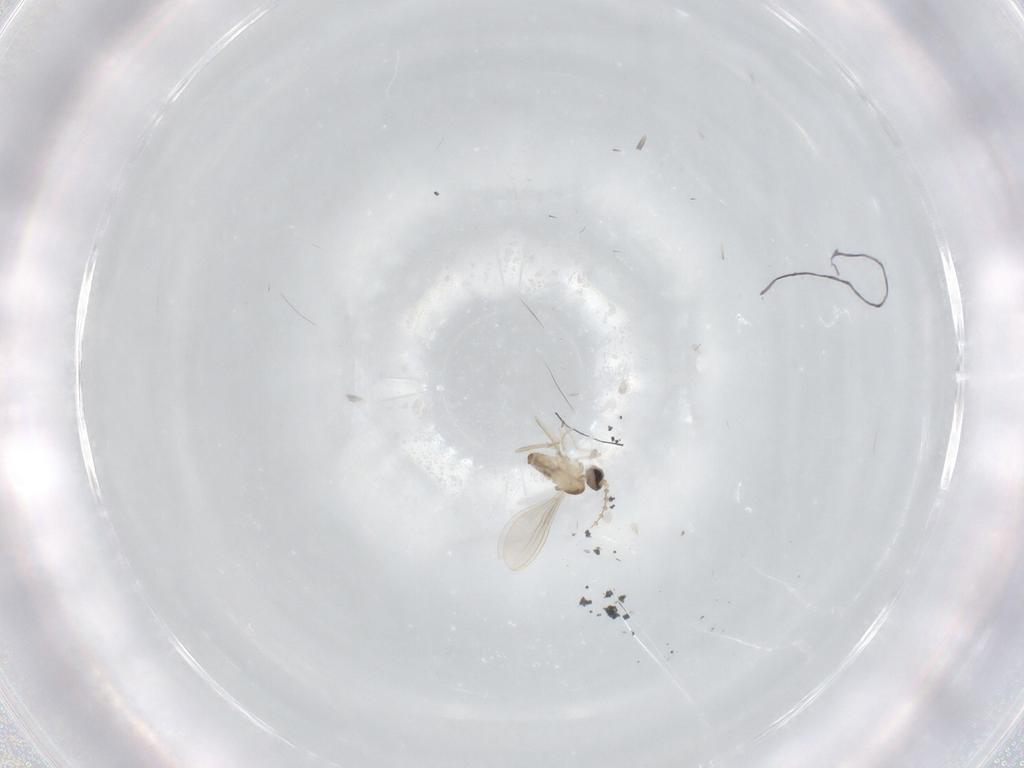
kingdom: Animalia
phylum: Arthropoda
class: Insecta
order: Diptera
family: Cecidomyiidae
